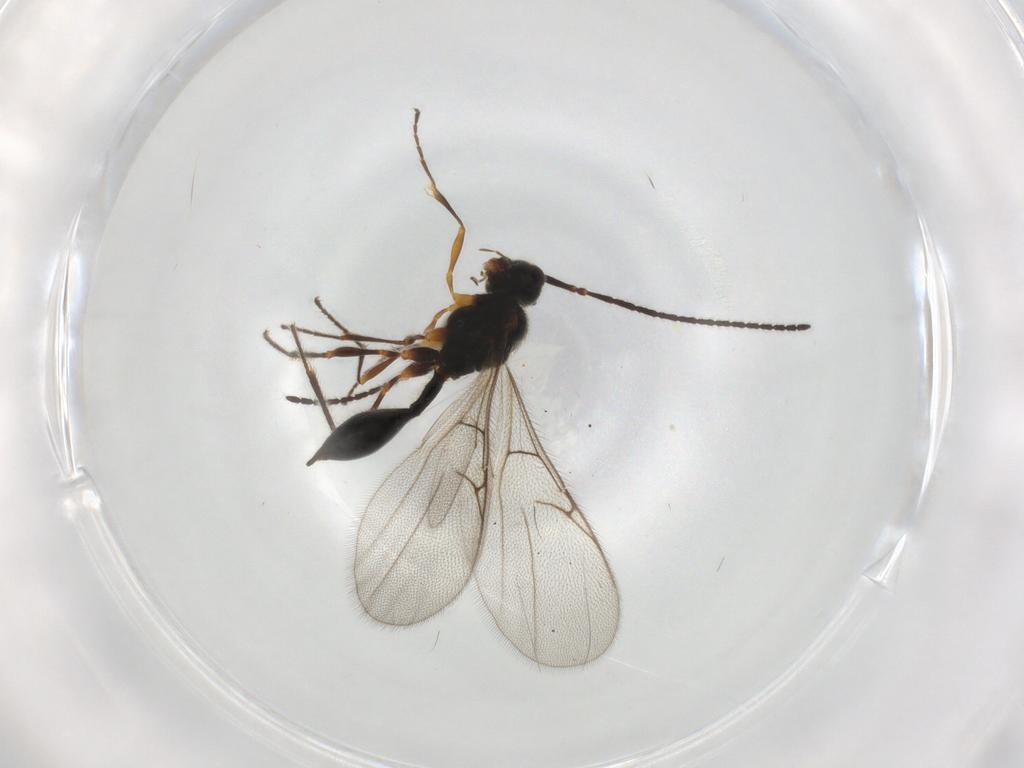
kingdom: Animalia
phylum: Arthropoda
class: Insecta
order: Hymenoptera
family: Diapriidae
